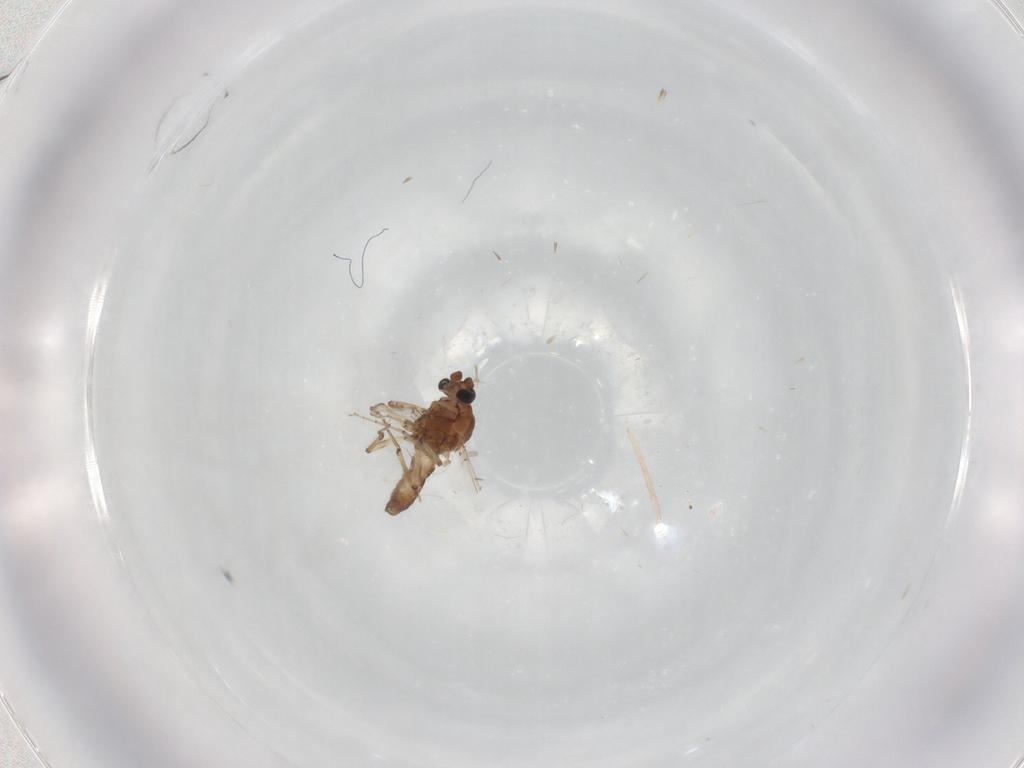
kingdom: Animalia
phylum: Arthropoda
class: Insecta
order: Diptera
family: Ceratopogonidae
